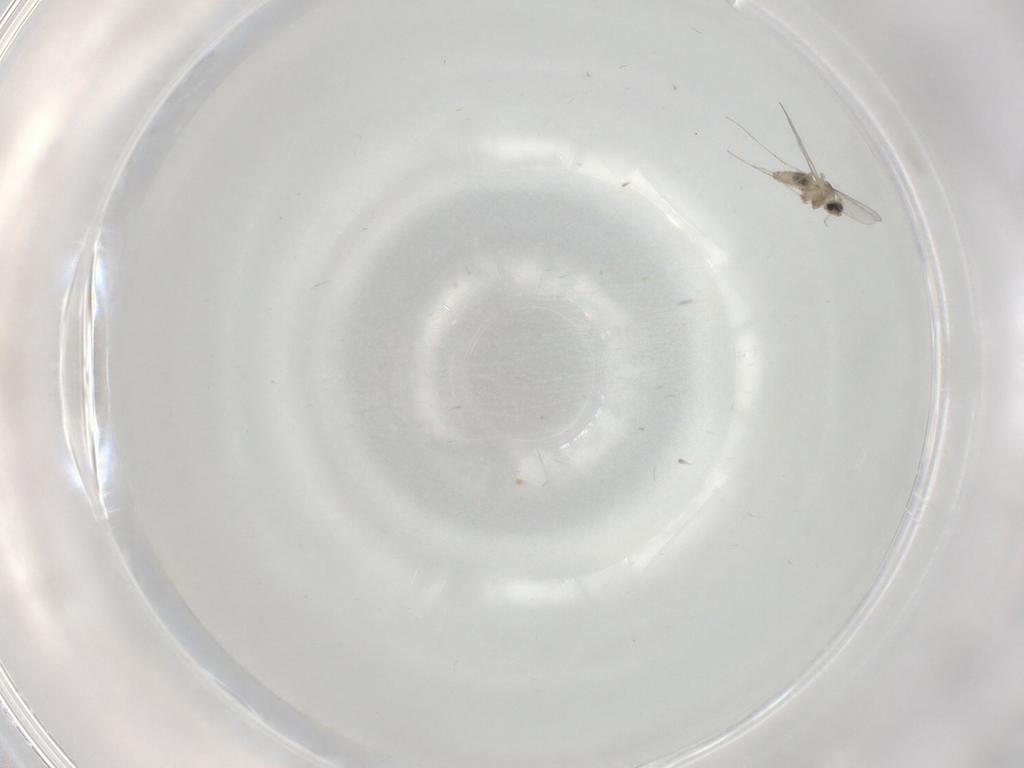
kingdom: Animalia
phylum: Arthropoda
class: Insecta
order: Diptera
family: Cecidomyiidae
